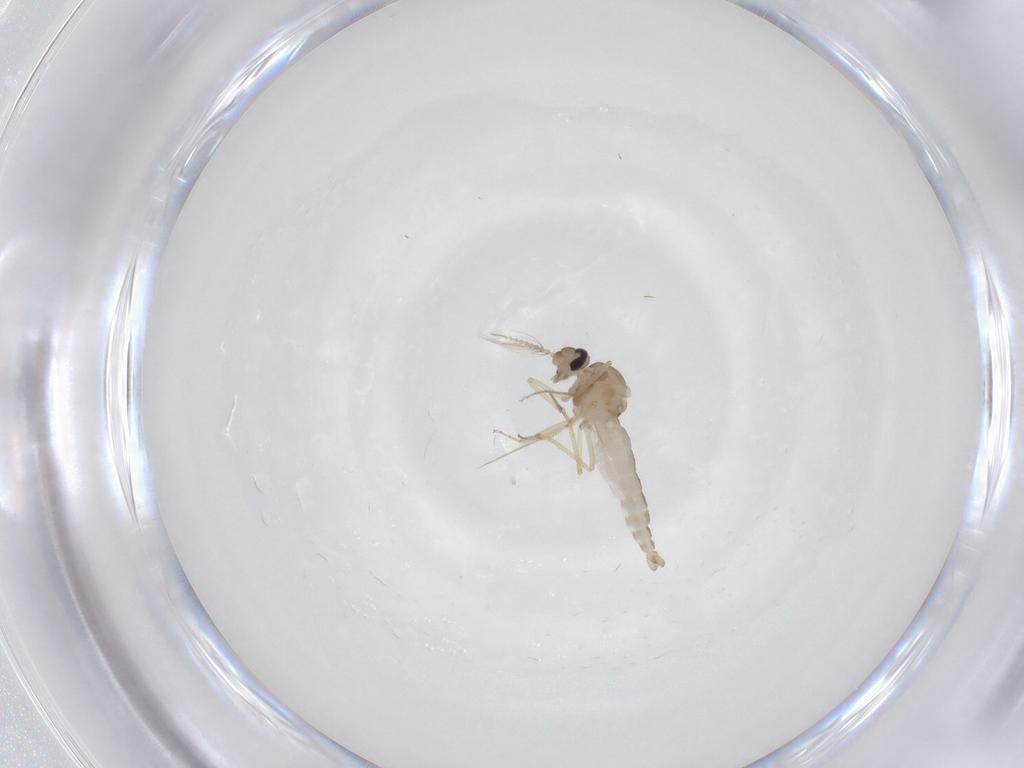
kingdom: Animalia
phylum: Arthropoda
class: Insecta
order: Diptera
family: Ceratopogonidae
